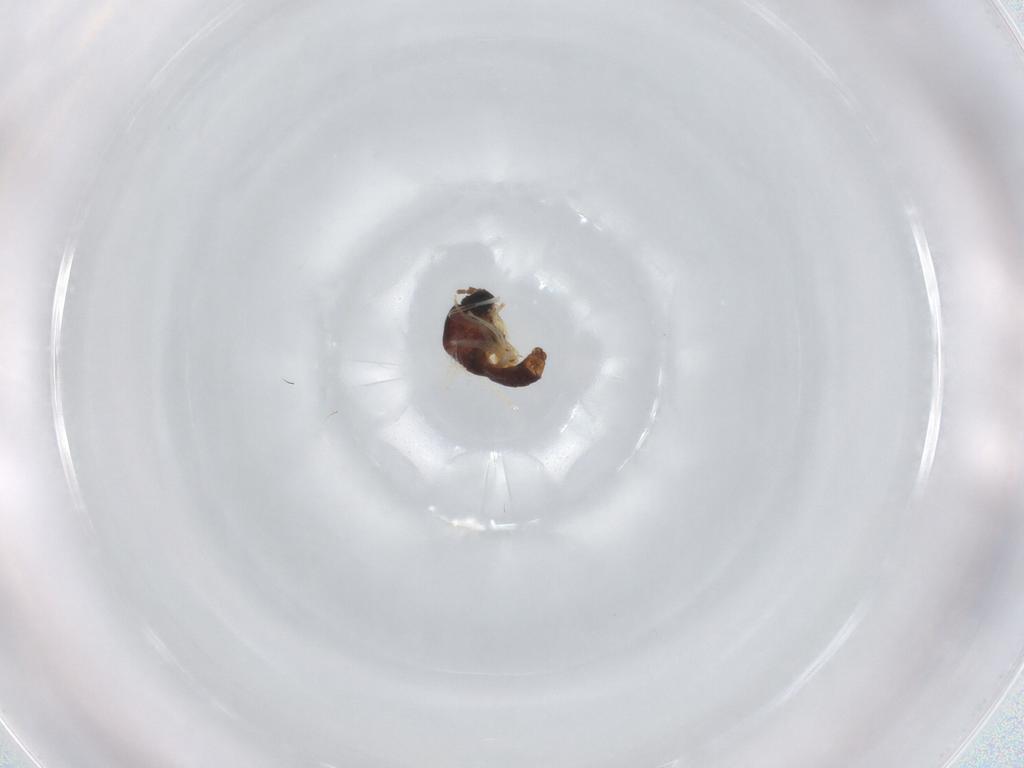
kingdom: Animalia
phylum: Arthropoda
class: Insecta
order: Diptera
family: Sciaridae
